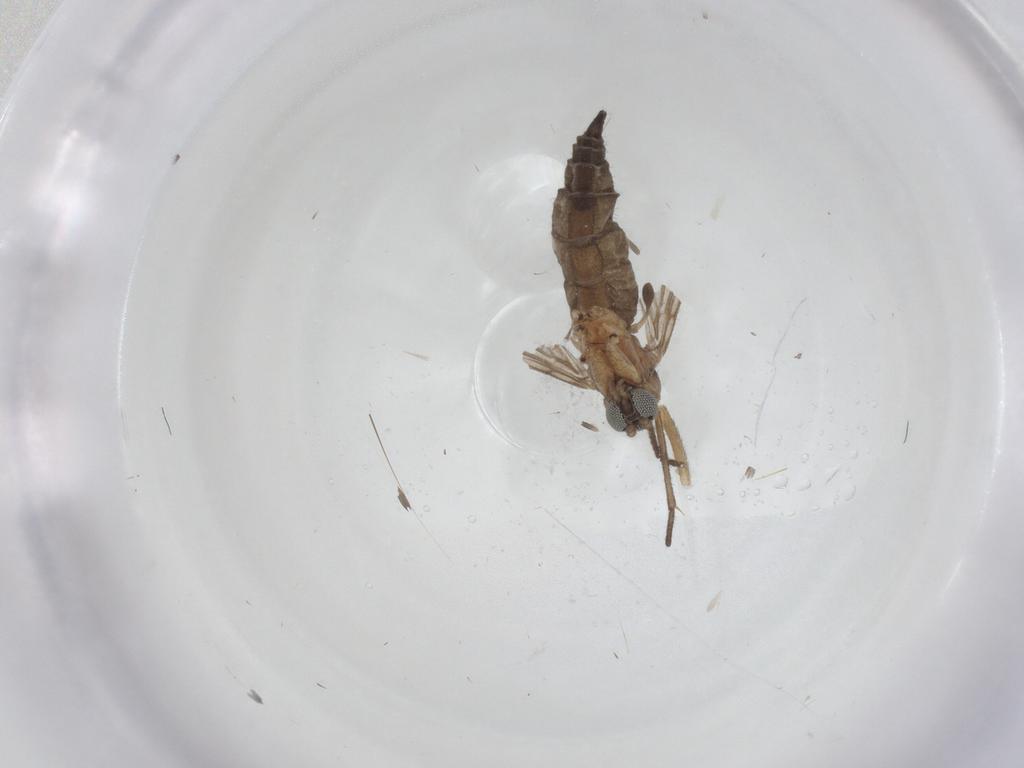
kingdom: Animalia
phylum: Arthropoda
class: Insecta
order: Diptera
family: Sciaridae
